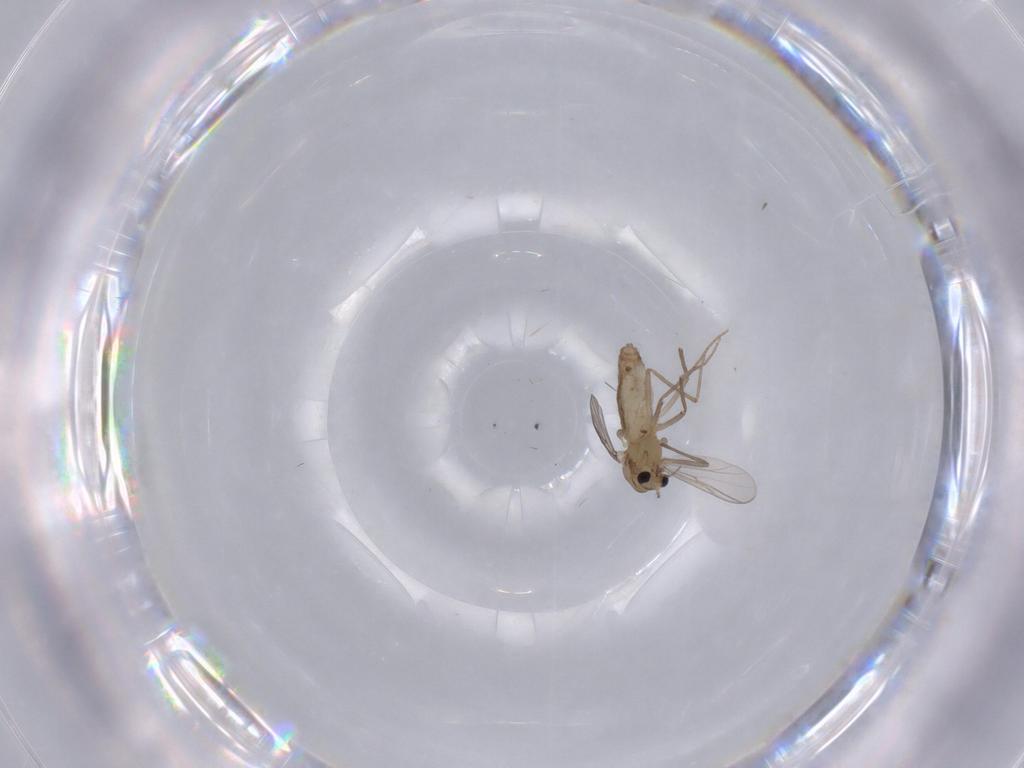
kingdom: Animalia
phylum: Arthropoda
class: Insecta
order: Diptera
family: Chironomidae
